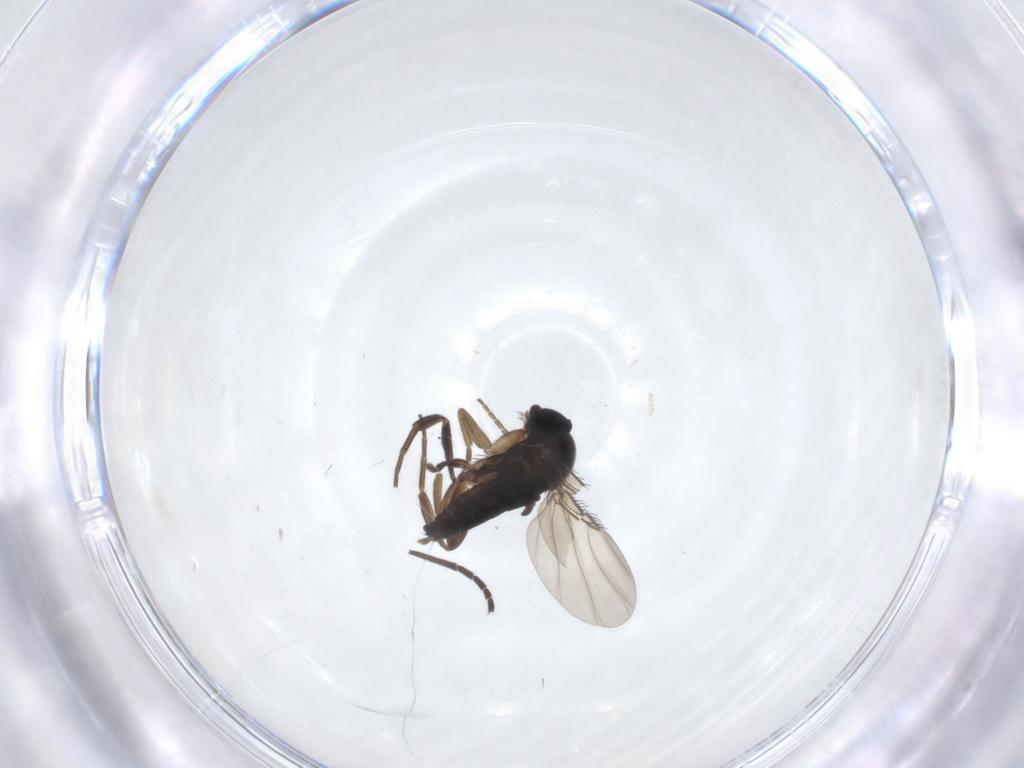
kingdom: Animalia
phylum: Arthropoda
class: Insecta
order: Diptera
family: Phoridae
